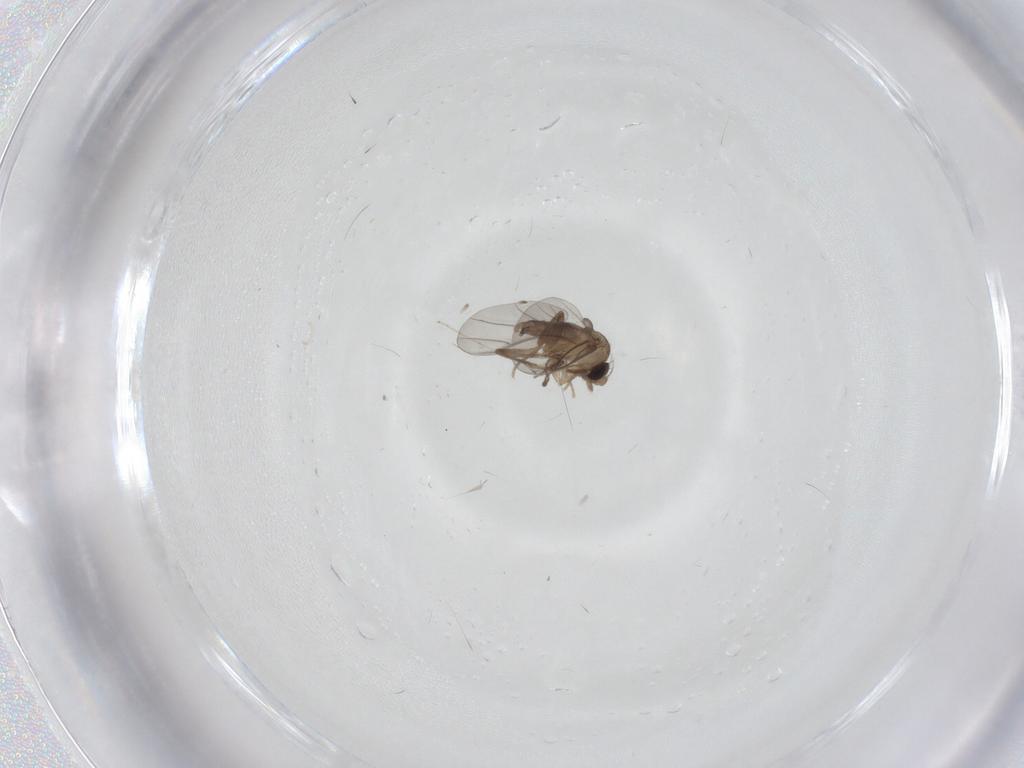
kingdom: Animalia
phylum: Arthropoda
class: Insecta
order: Diptera
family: Cecidomyiidae
